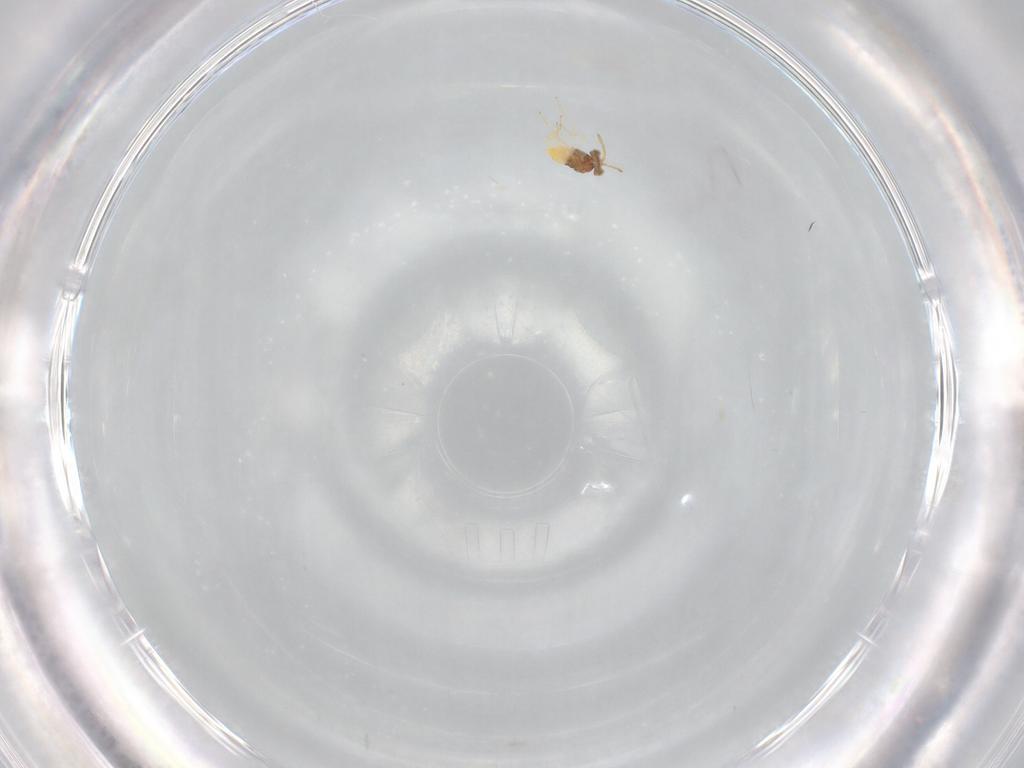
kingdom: Animalia
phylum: Arthropoda
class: Insecta
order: Hymenoptera
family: Aphelinidae
